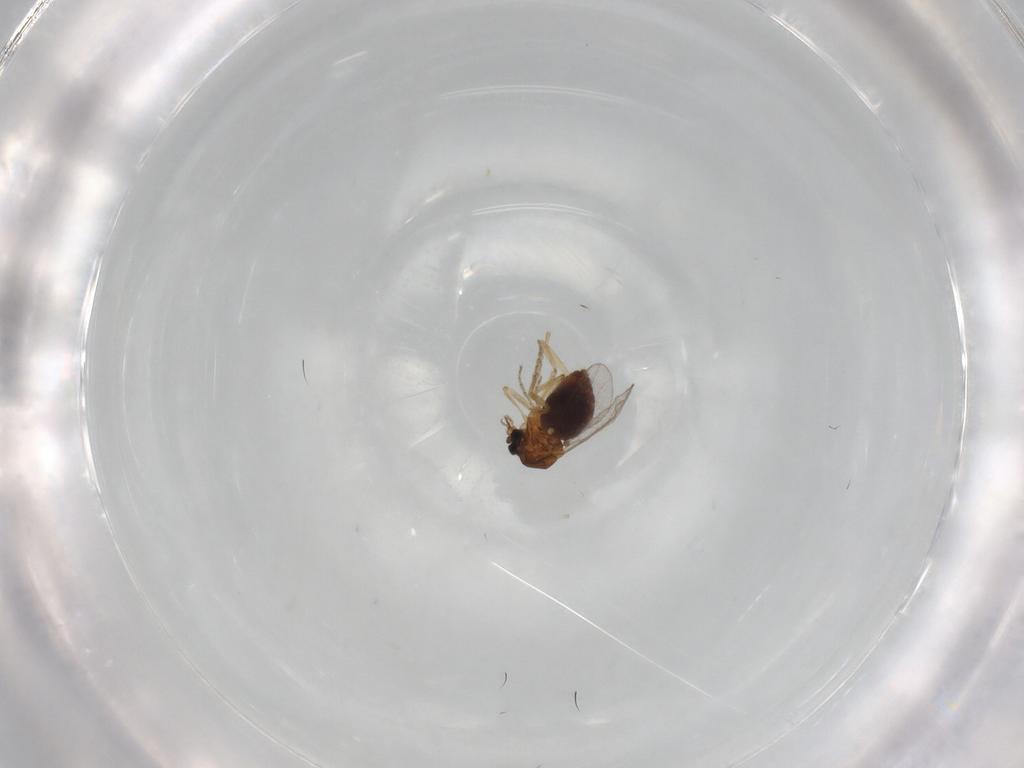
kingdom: Animalia
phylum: Arthropoda
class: Insecta
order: Diptera
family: Ceratopogonidae
